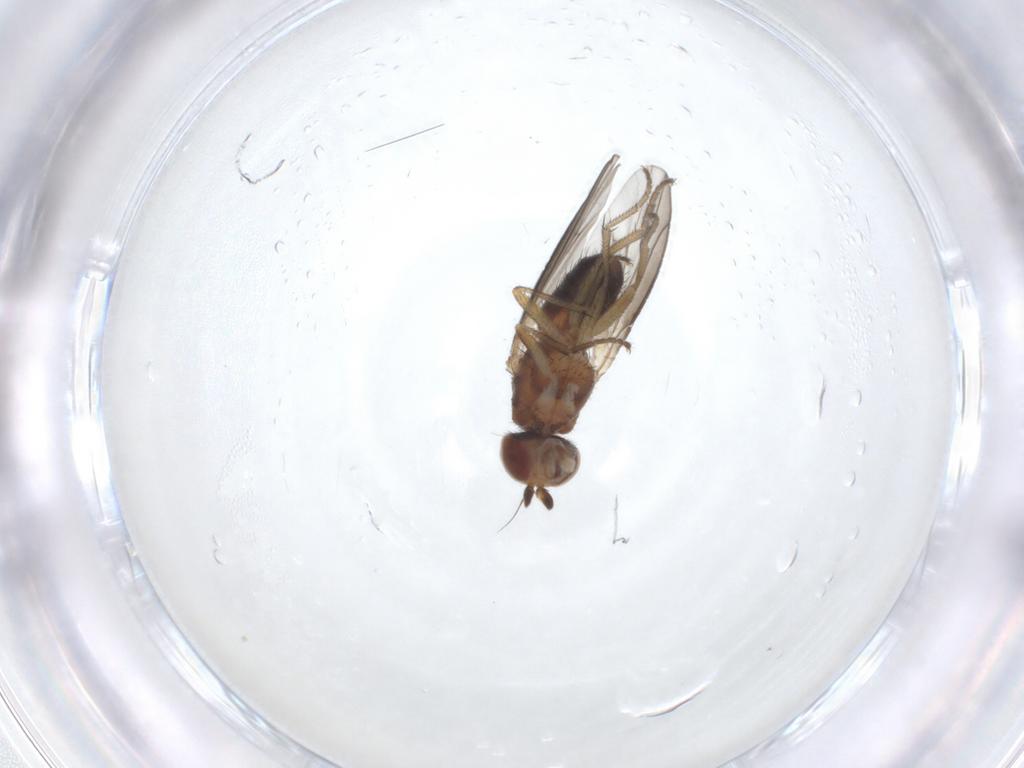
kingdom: Animalia
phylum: Arthropoda
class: Insecta
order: Diptera
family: Heleomyzidae
